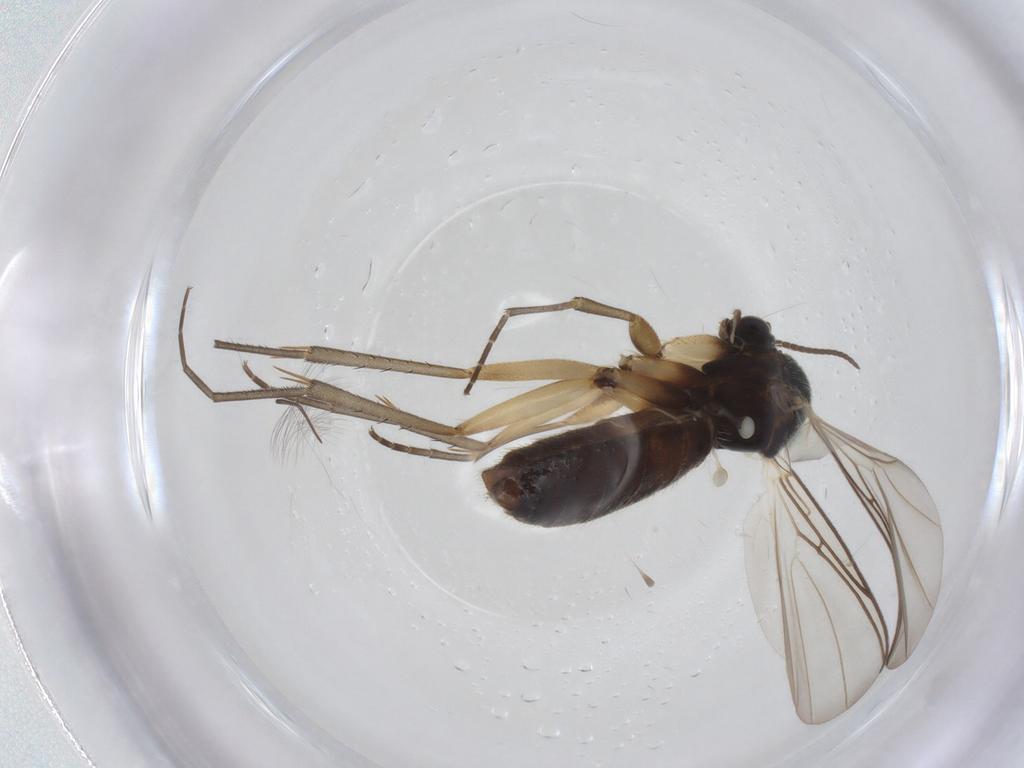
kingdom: Animalia
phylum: Arthropoda
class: Insecta
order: Diptera
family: Mycetophilidae
